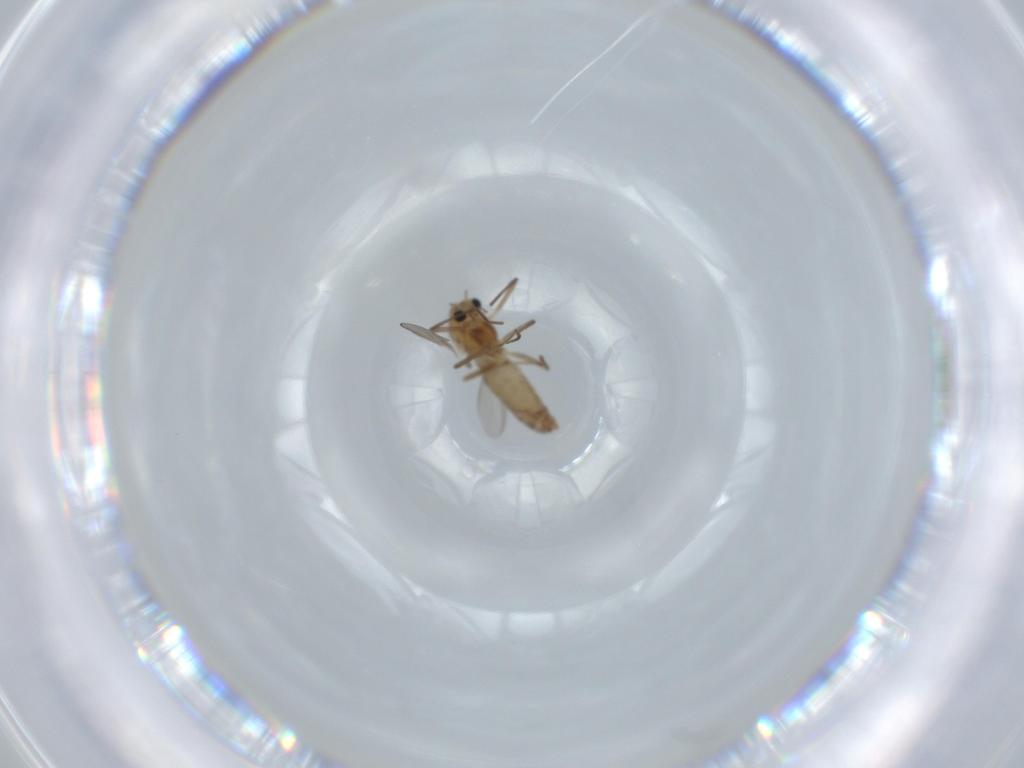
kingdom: Animalia
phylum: Arthropoda
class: Insecta
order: Diptera
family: Chironomidae
